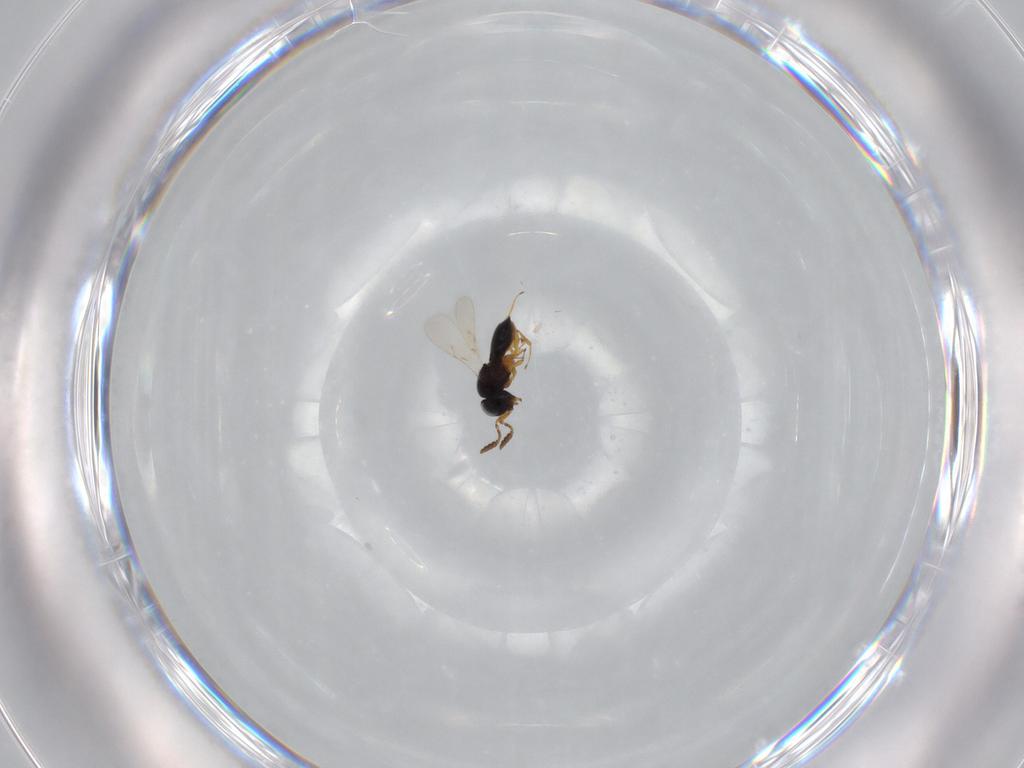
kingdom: Animalia
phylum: Arthropoda
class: Insecta
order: Hymenoptera
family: Scelionidae
